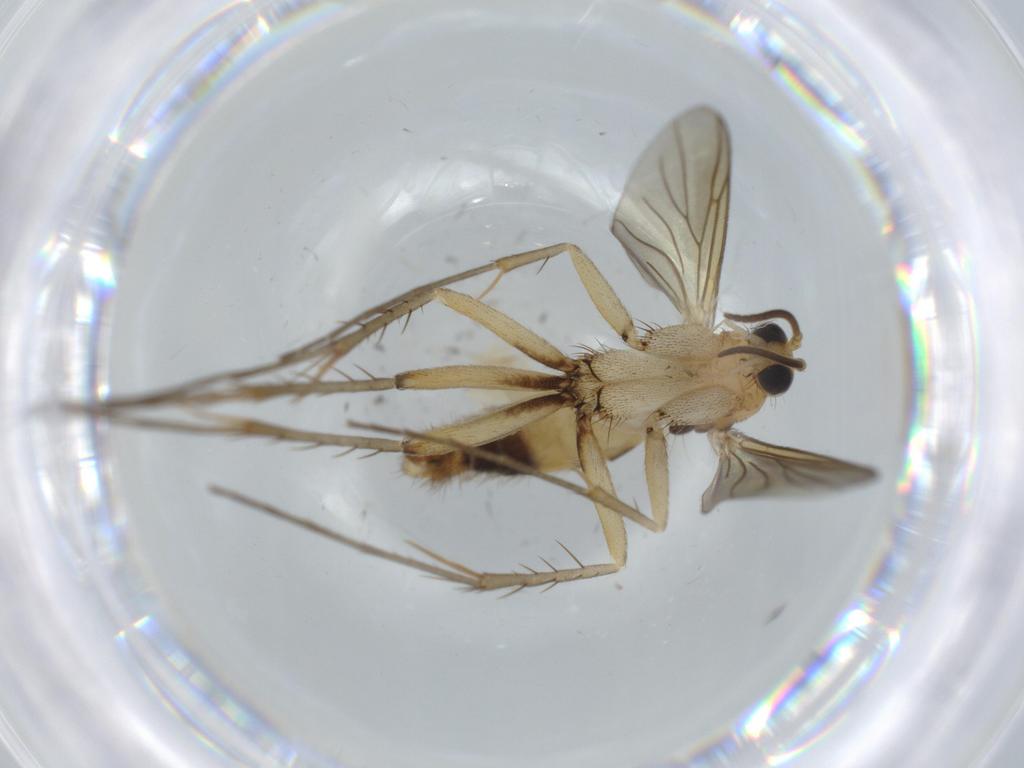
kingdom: Animalia
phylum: Arthropoda
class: Insecta
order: Diptera
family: Ceratopogonidae
